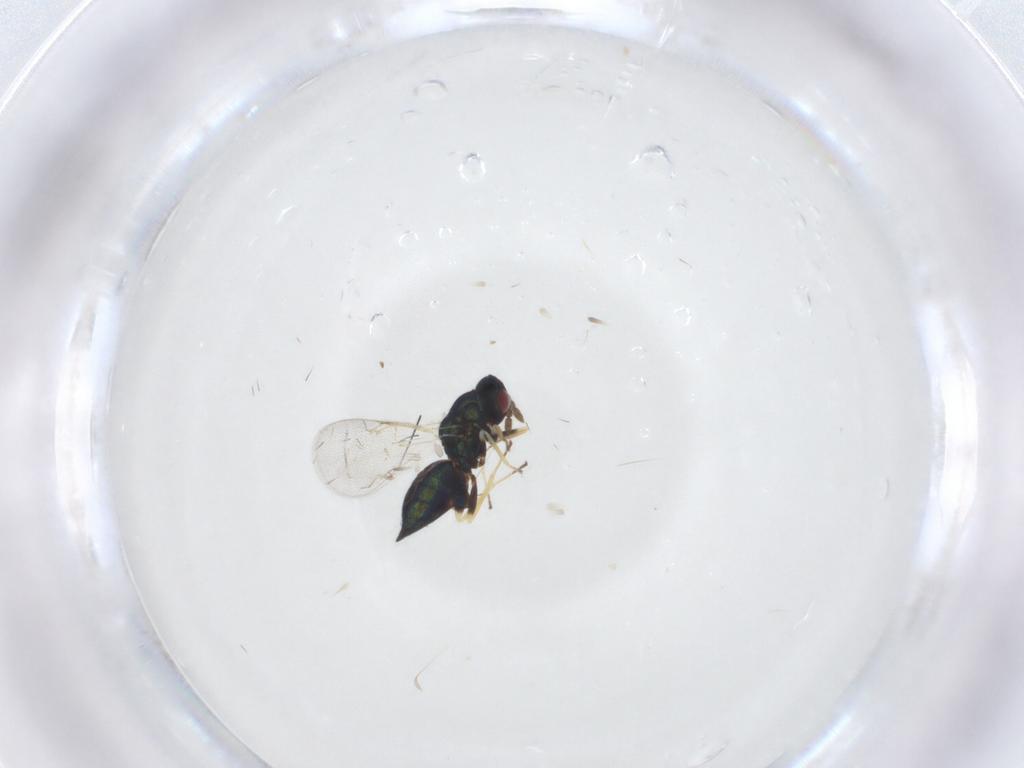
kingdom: Animalia
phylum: Arthropoda
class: Insecta
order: Hymenoptera
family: Eulophidae
